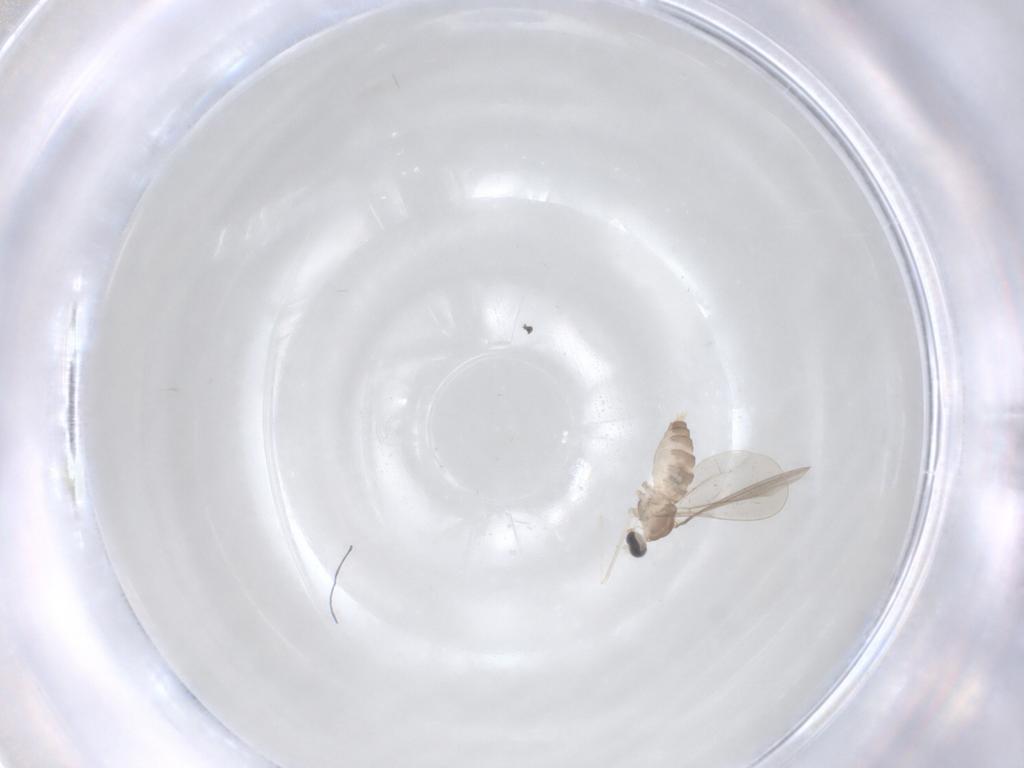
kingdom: Animalia
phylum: Arthropoda
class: Insecta
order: Diptera
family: Cecidomyiidae
